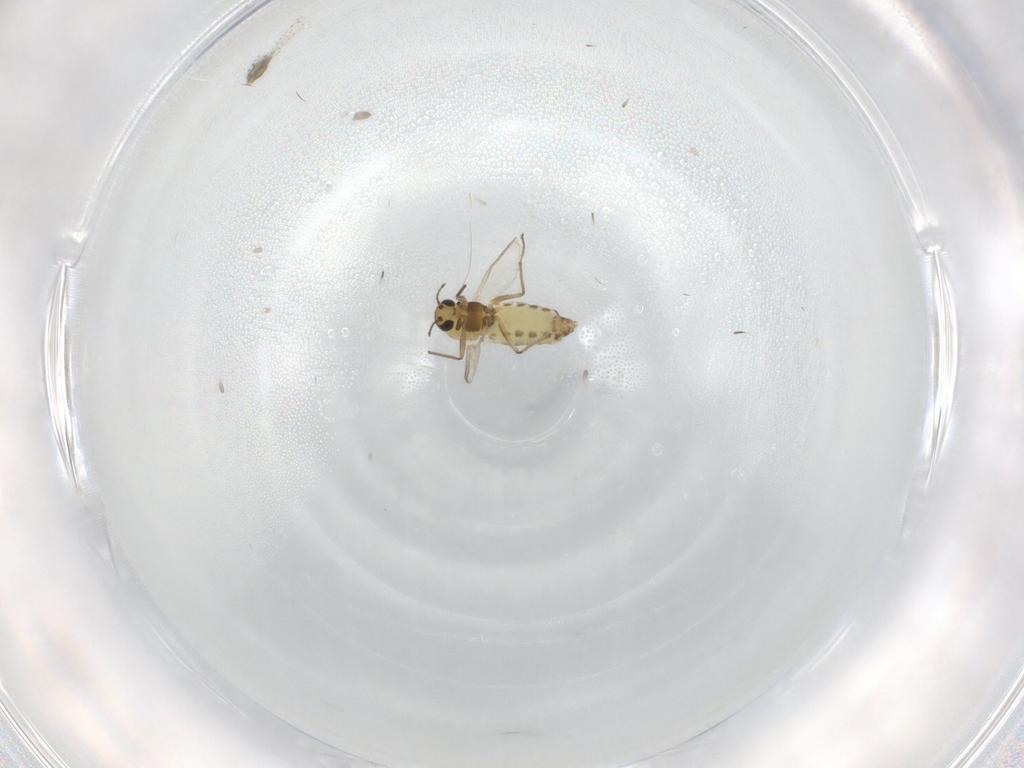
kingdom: Animalia
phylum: Arthropoda
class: Insecta
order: Diptera
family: Chironomidae
